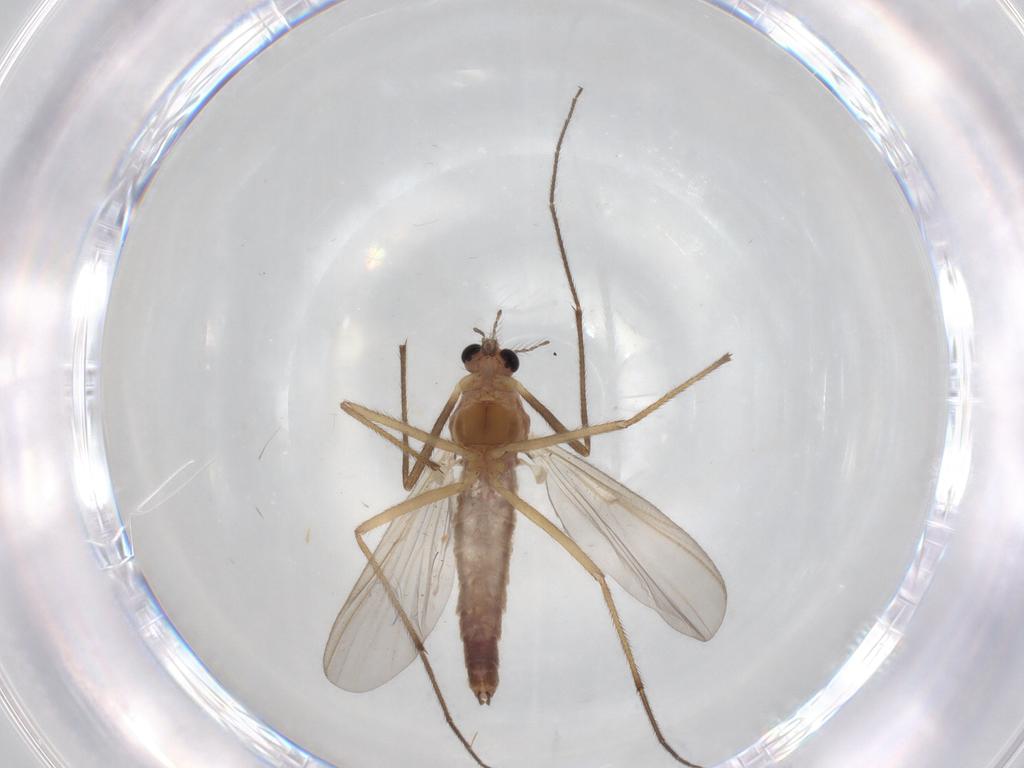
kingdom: Animalia
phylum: Arthropoda
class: Insecta
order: Diptera
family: Chironomidae
